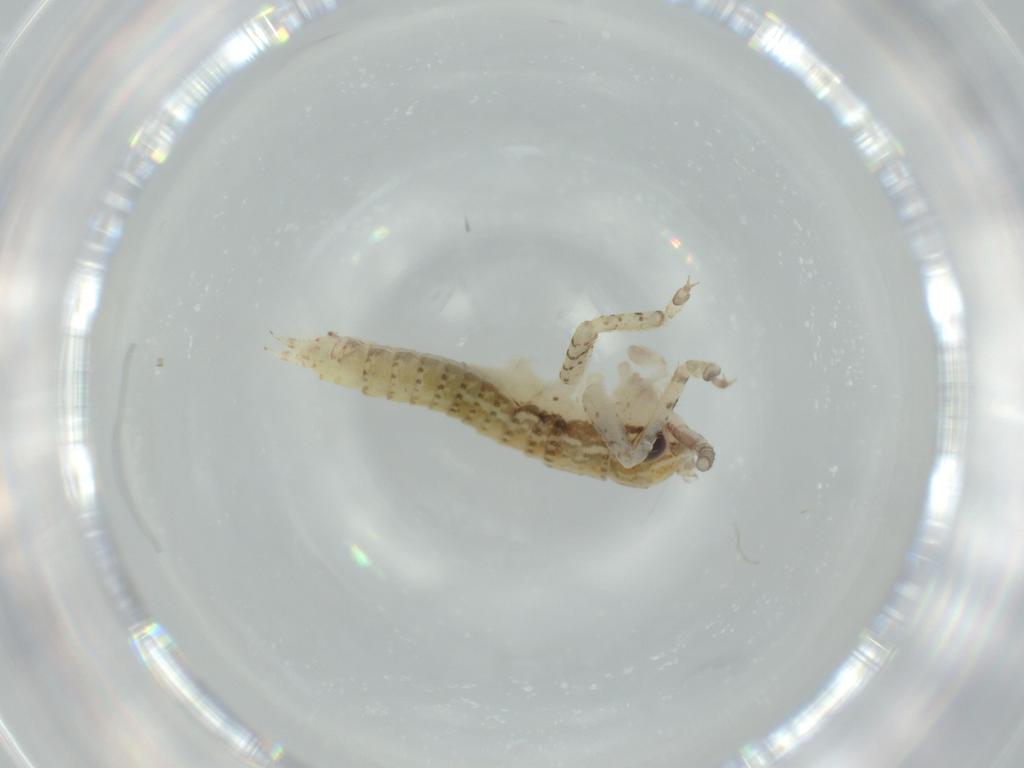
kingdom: Animalia
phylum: Arthropoda
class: Insecta
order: Orthoptera
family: Gryllidae
